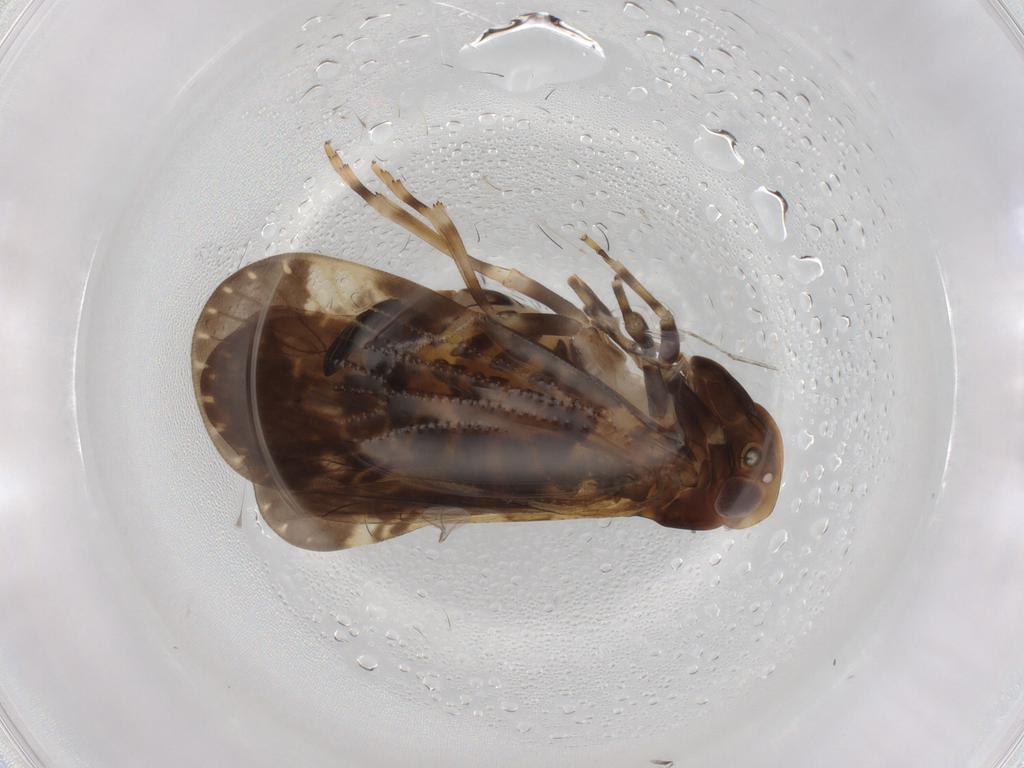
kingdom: Animalia
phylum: Arthropoda
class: Insecta
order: Hemiptera
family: Cixiidae
